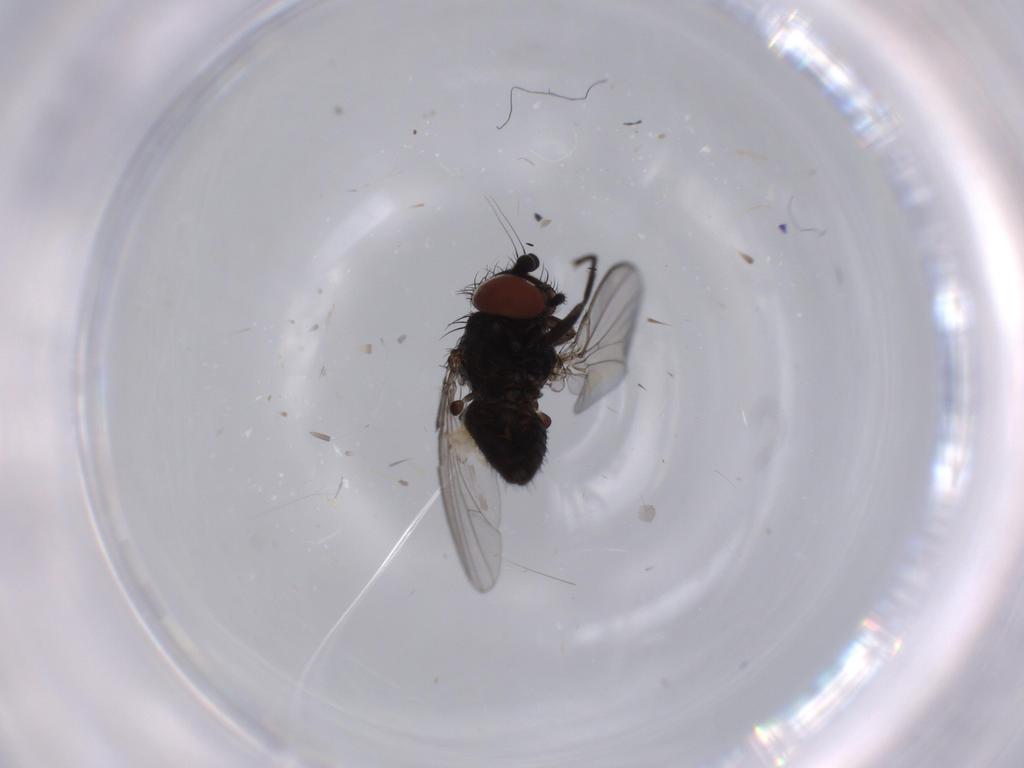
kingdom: Animalia
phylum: Arthropoda
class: Insecta
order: Diptera
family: Milichiidae
